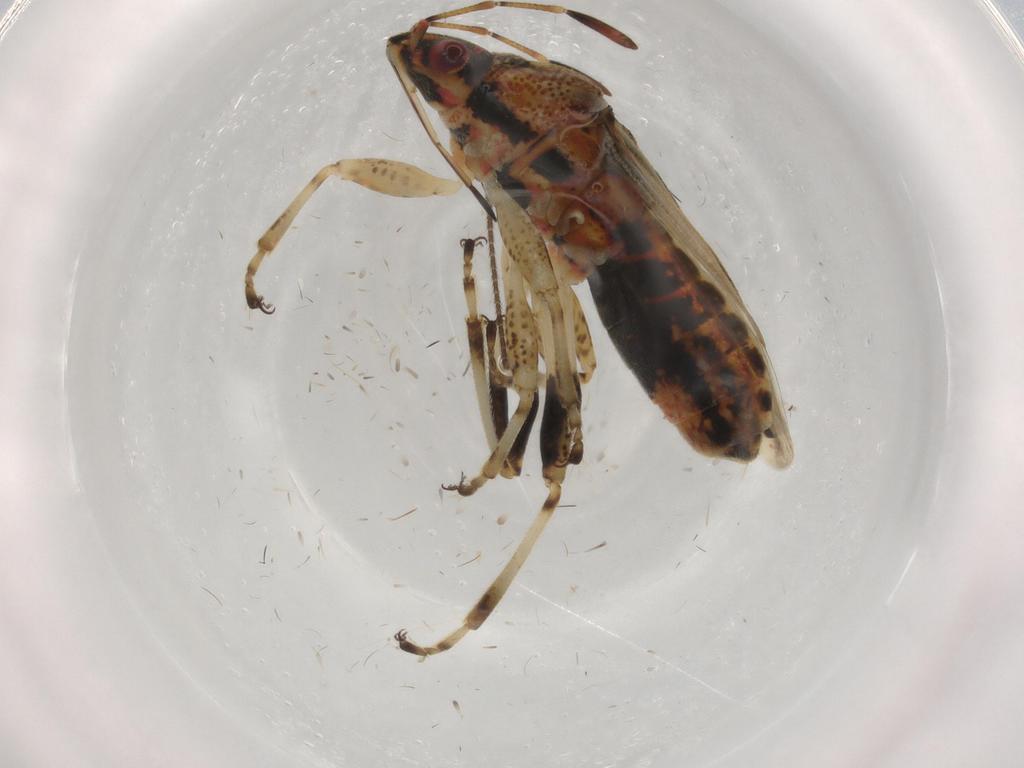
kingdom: Animalia
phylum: Arthropoda
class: Insecta
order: Hemiptera
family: Lygaeidae
